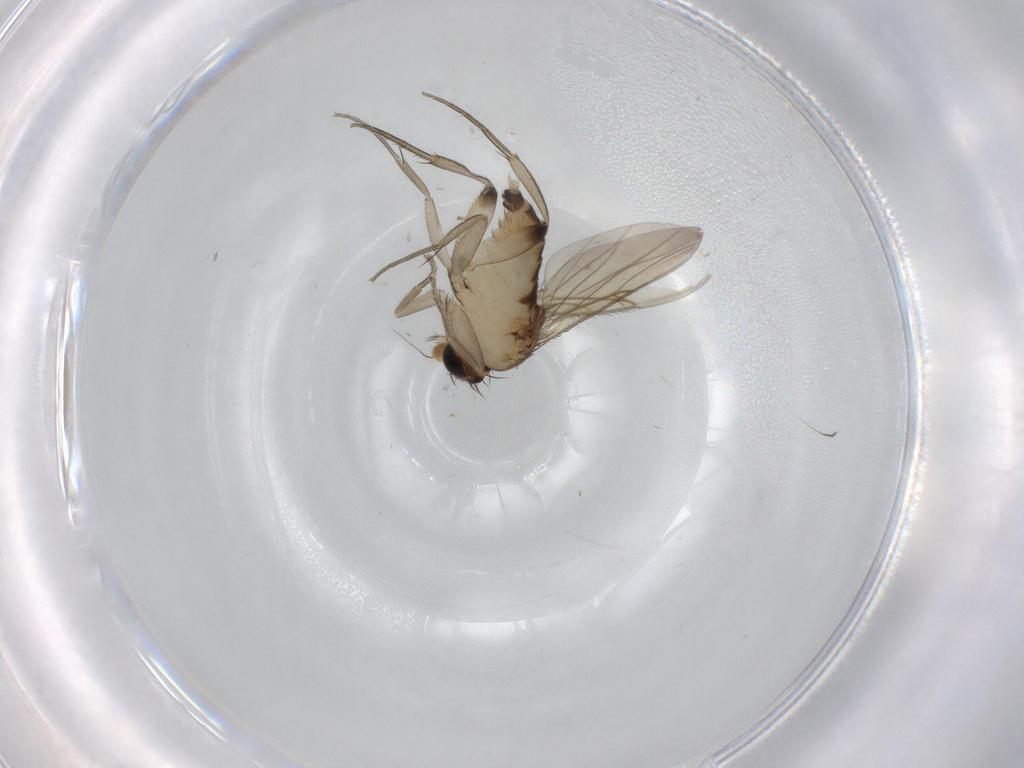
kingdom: Animalia
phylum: Arthropoda
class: Insecta
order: Diptera
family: Phoridae
